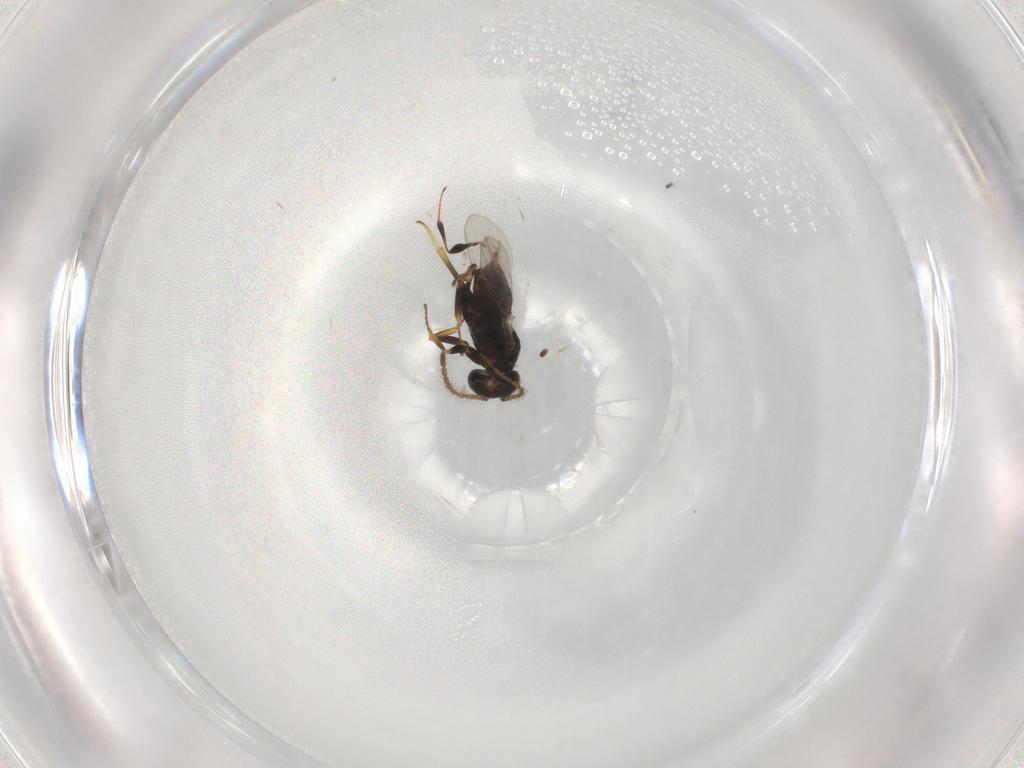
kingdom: Animalia
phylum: Arthropoda
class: Insecta
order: Hymenoptera
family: Platygastridae
